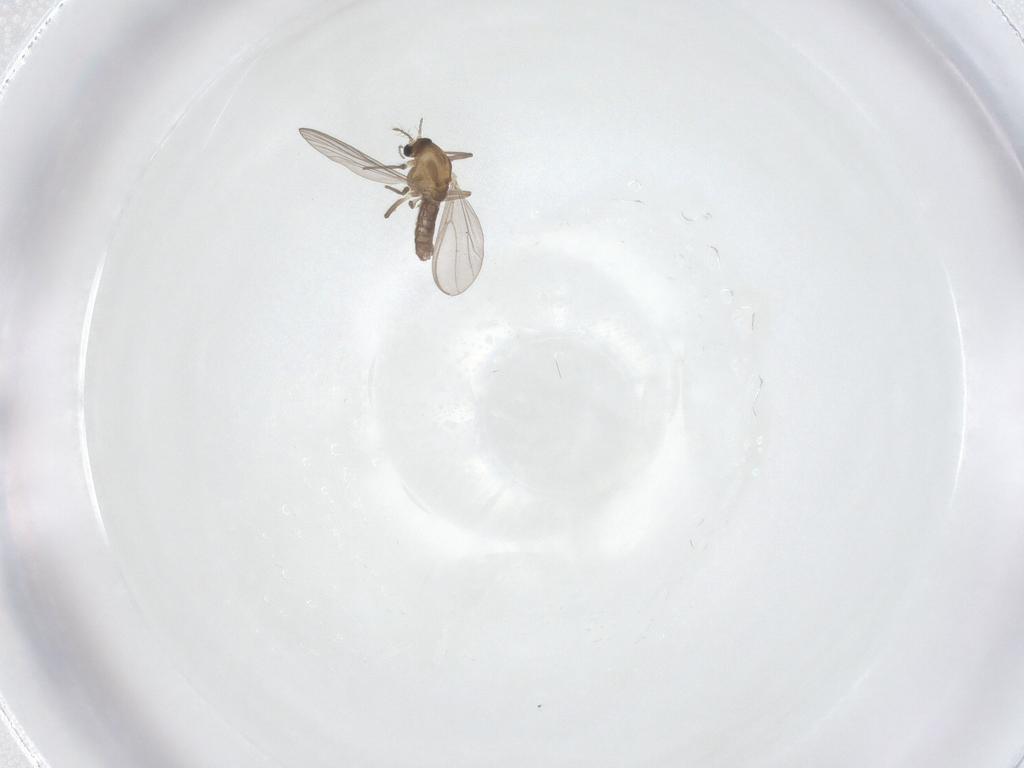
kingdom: Animalia
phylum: Arthropoda
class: Insecta
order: Diptera
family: Chironomidae
